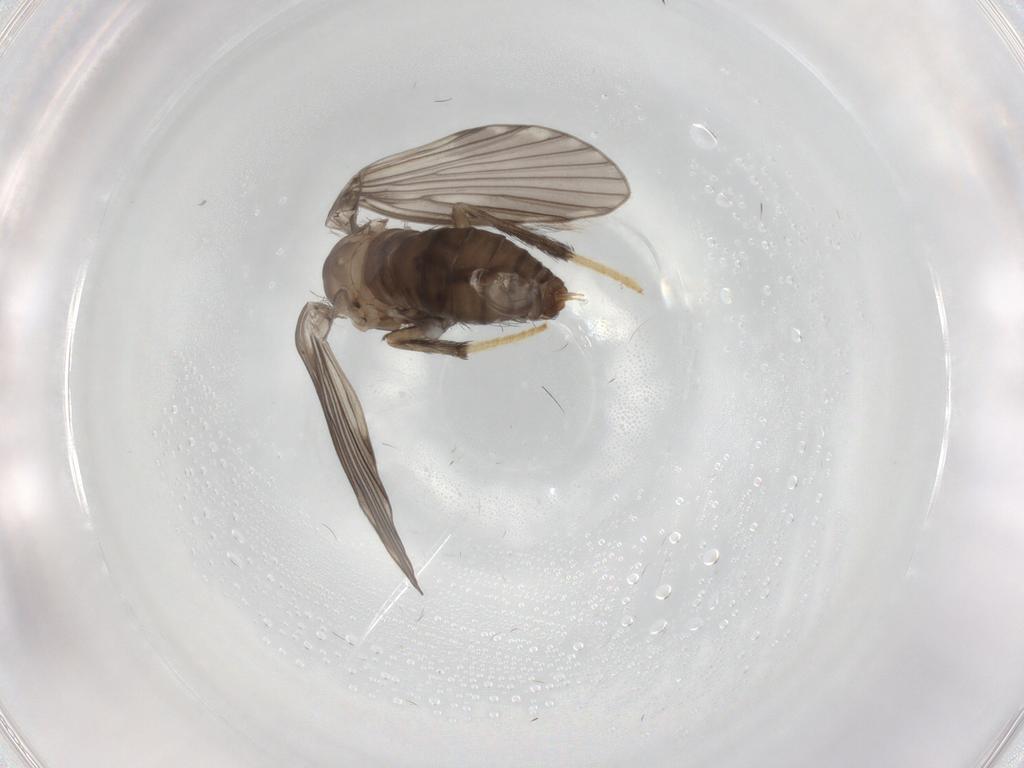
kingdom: Animalia
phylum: Arthropoda
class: Insecta
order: Diptera
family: Psychodidae
